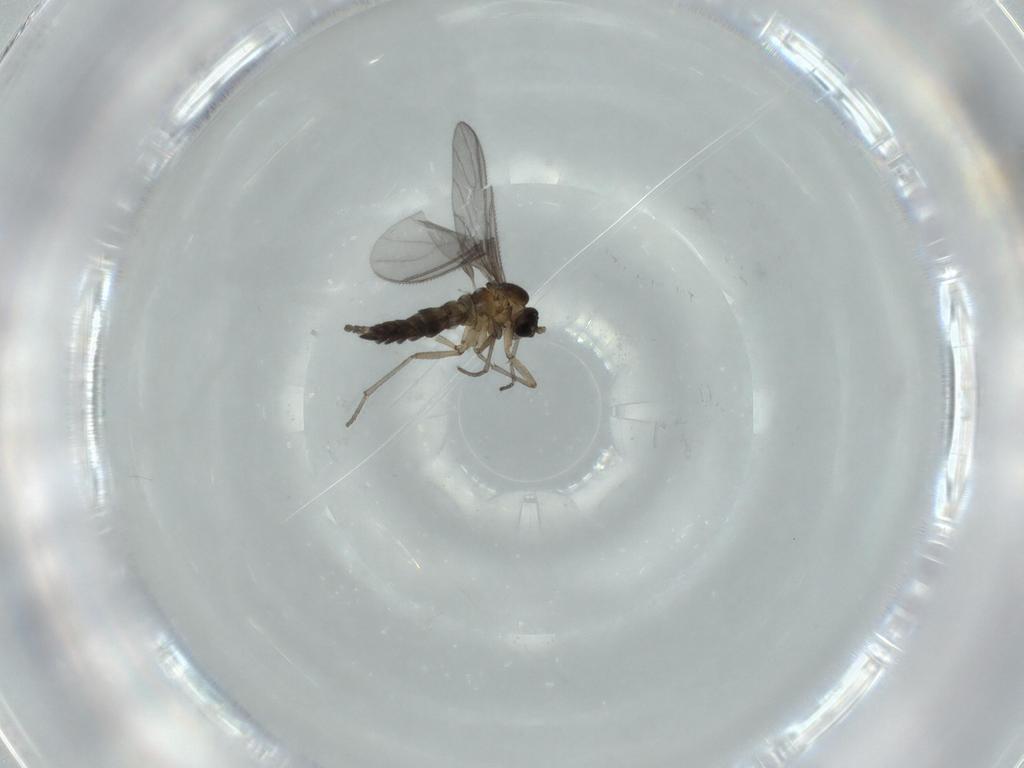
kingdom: Animalia
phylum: Arthropoda
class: Insecta
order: Diptera
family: Sciaridae
